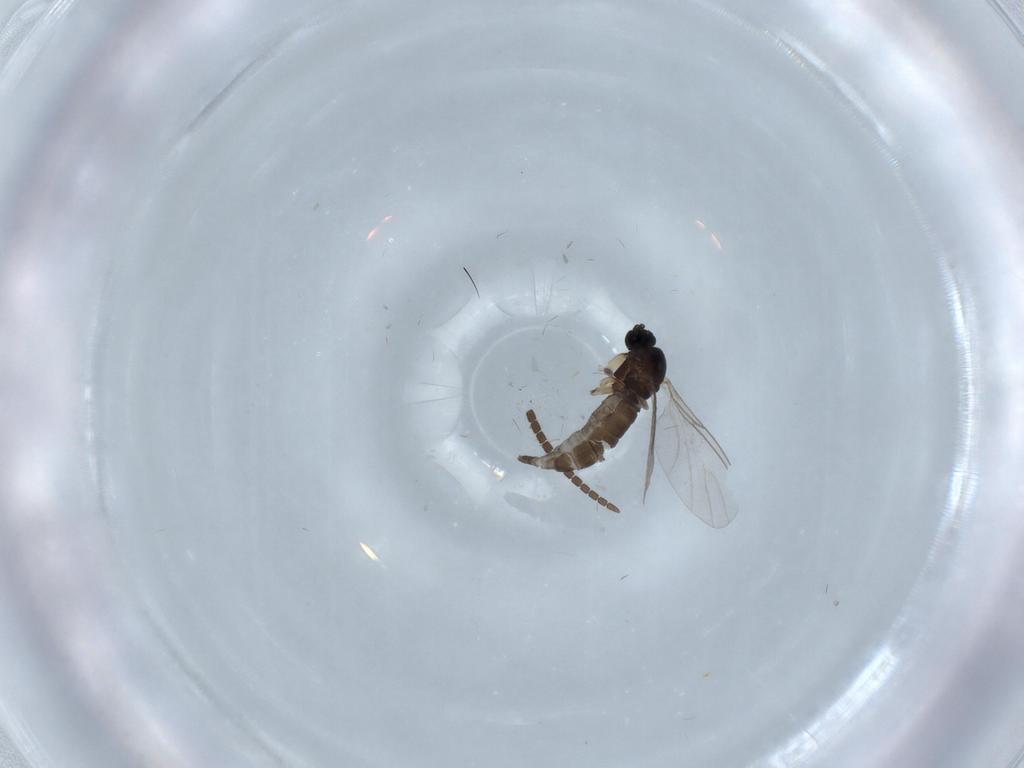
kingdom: Animalia
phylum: Arthropoda
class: Insecta
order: Diptera
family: Sciaridae
